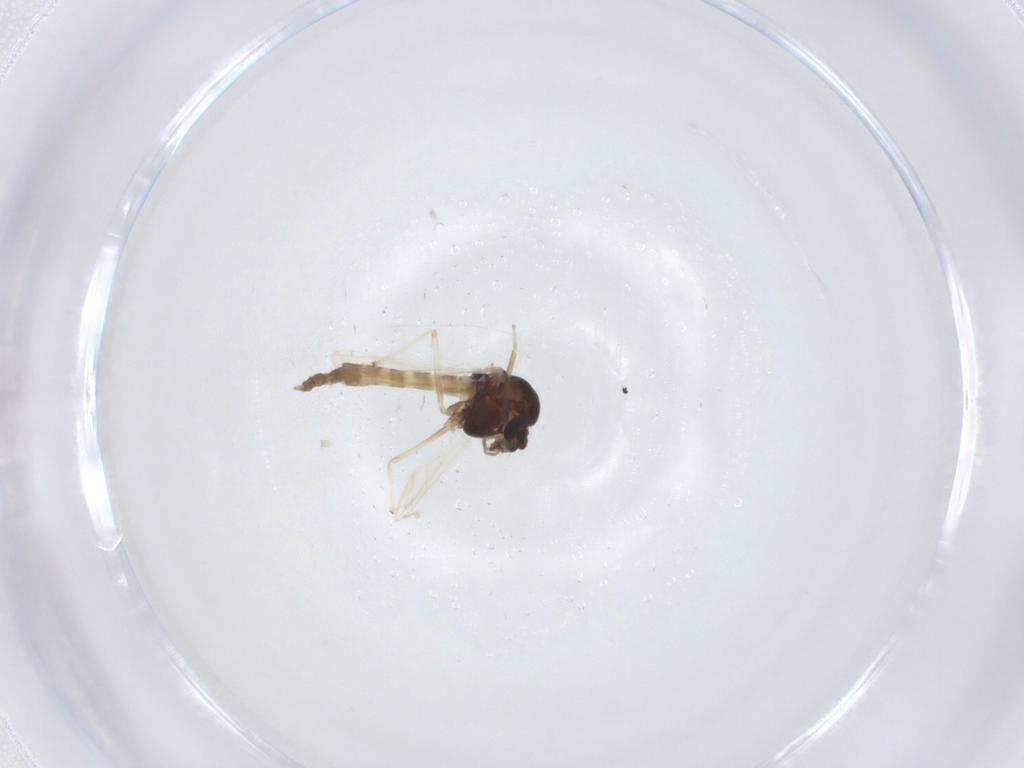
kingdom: Animalia
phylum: Arthropoda
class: Insecta
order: Diptera
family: Chironomidae
